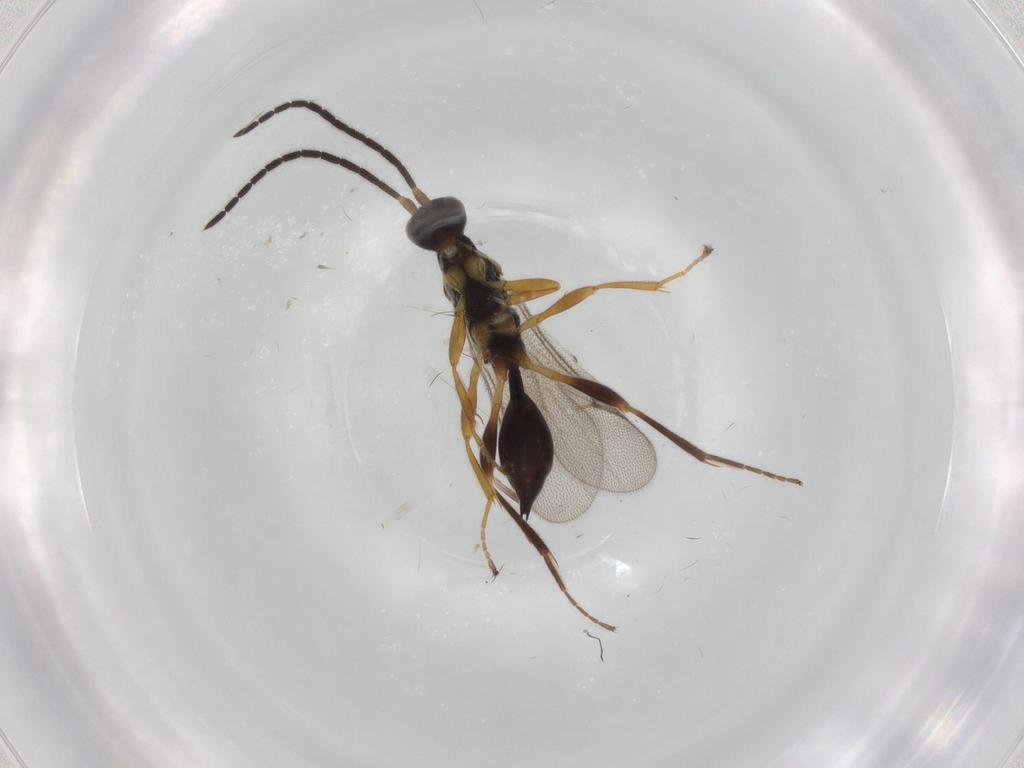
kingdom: Animalia
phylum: Arthropoda
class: Insecta
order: Hymenoptera
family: Proctotrupidae
